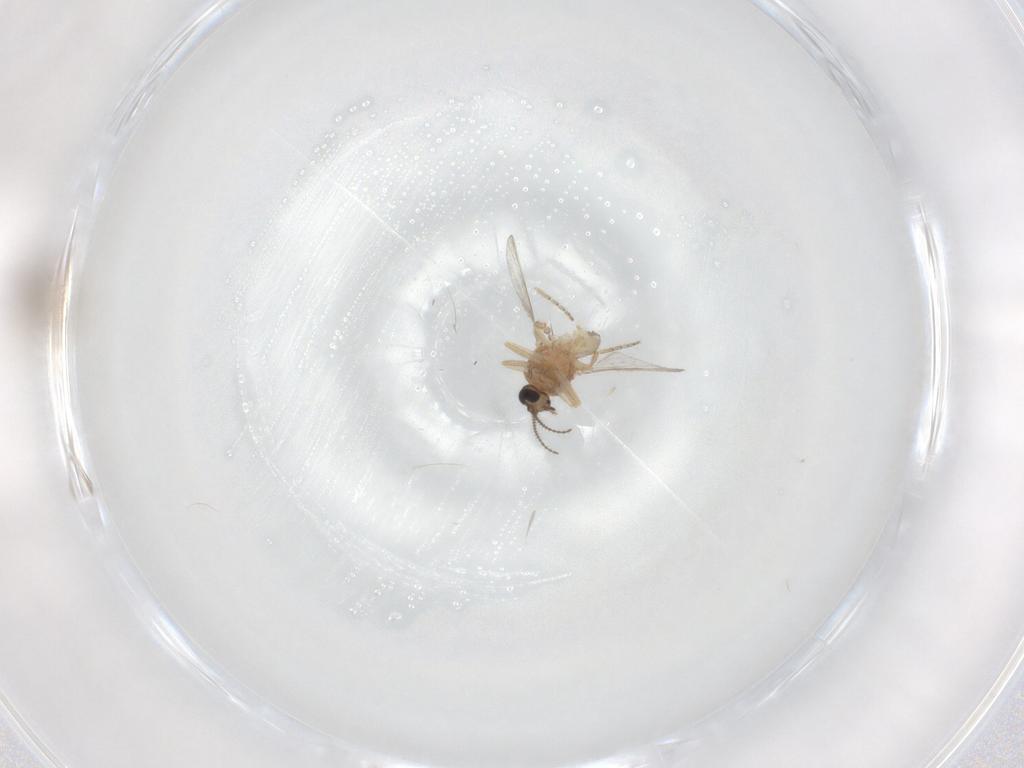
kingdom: Animalia
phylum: Arthropoda
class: Insecta
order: Diptera
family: Ceratopogonidae
